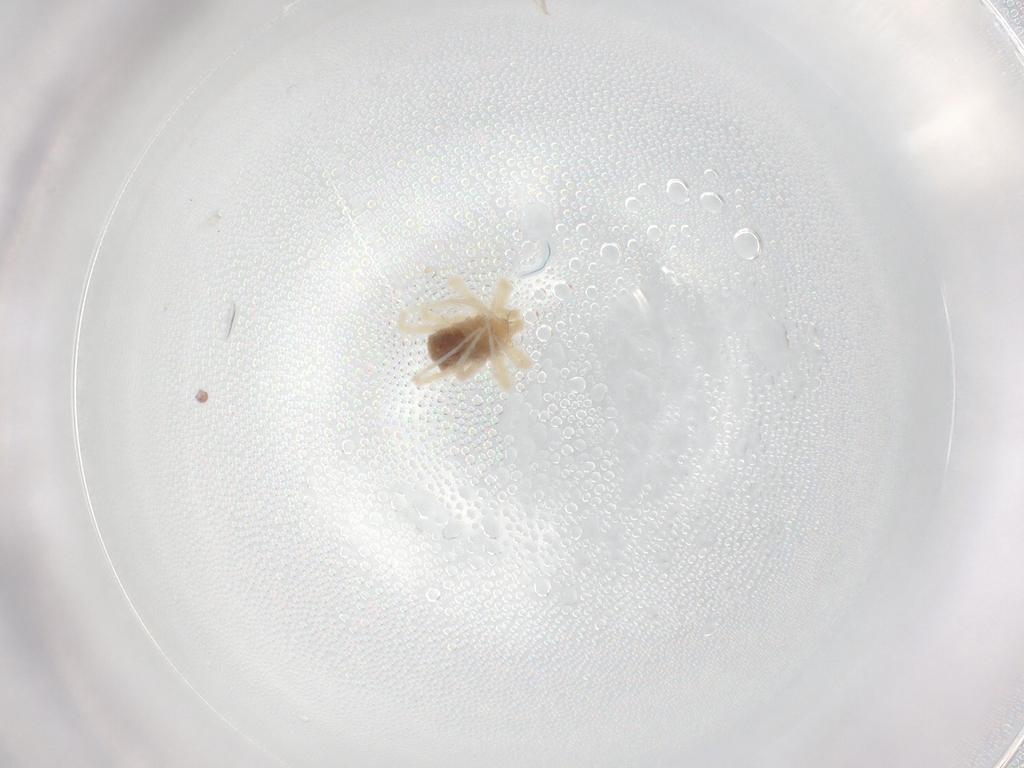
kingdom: Animalia
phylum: Arthropoda
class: Arachnida
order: Trombidiformes
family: Anystidae
